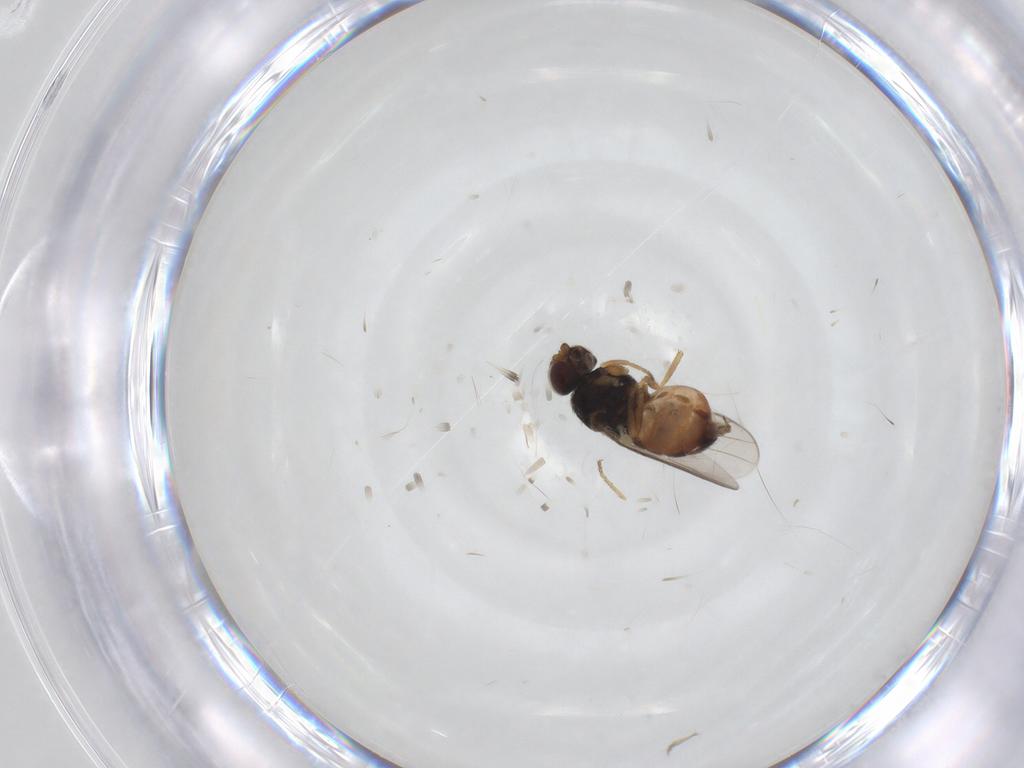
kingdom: Animalia
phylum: Arthropoda
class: Insecta
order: Diptera
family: Chloropidae
